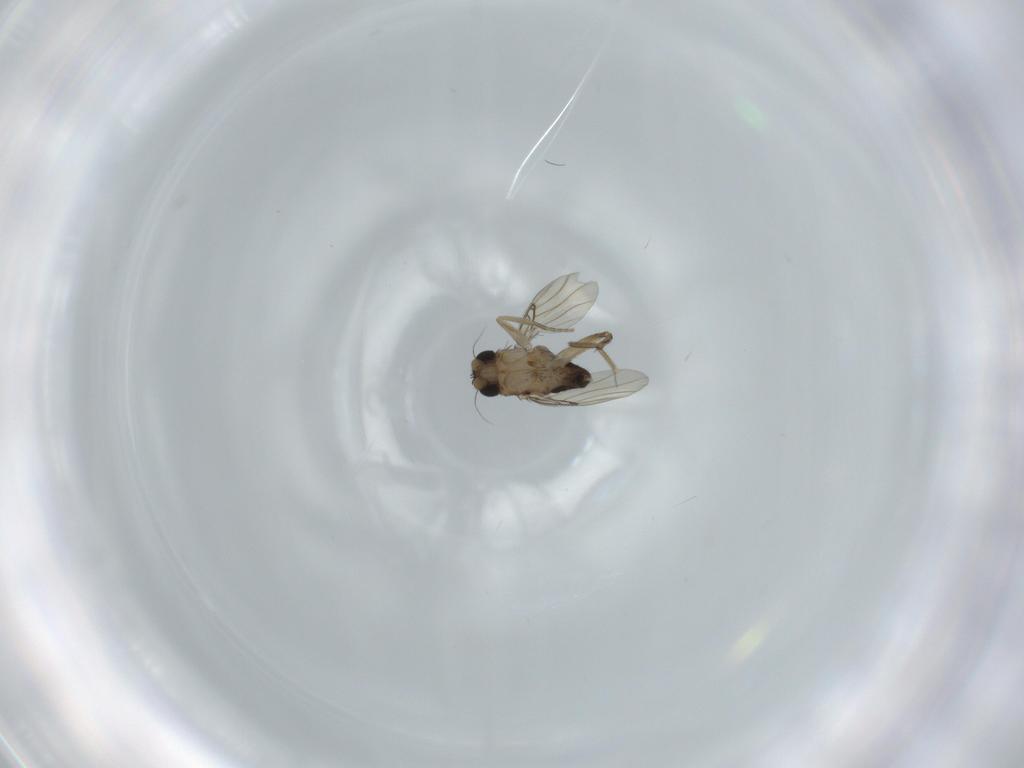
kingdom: Animalia
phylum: Arthropoda
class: Insecta
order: Diptera
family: Phoridae
